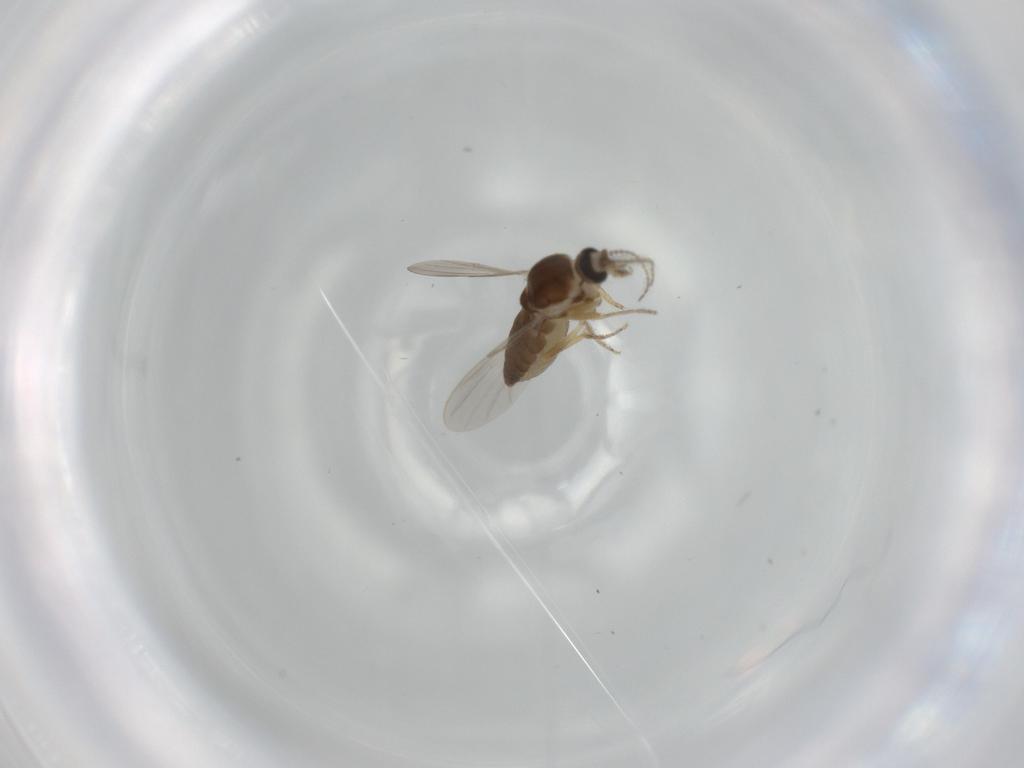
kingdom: Animalia
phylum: Arthropoda
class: Insecta
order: Diptera
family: Ceratopogonidae
